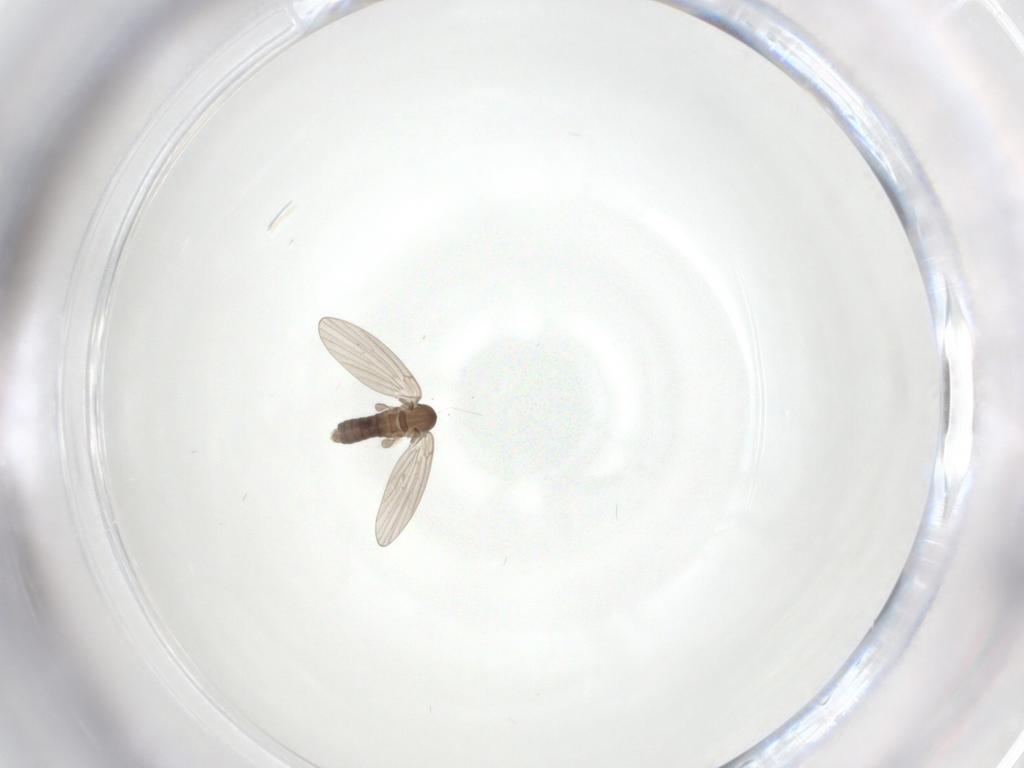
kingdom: Animalia
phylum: Arthropoda
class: Insecta
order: Diptera
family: Psychodidae
